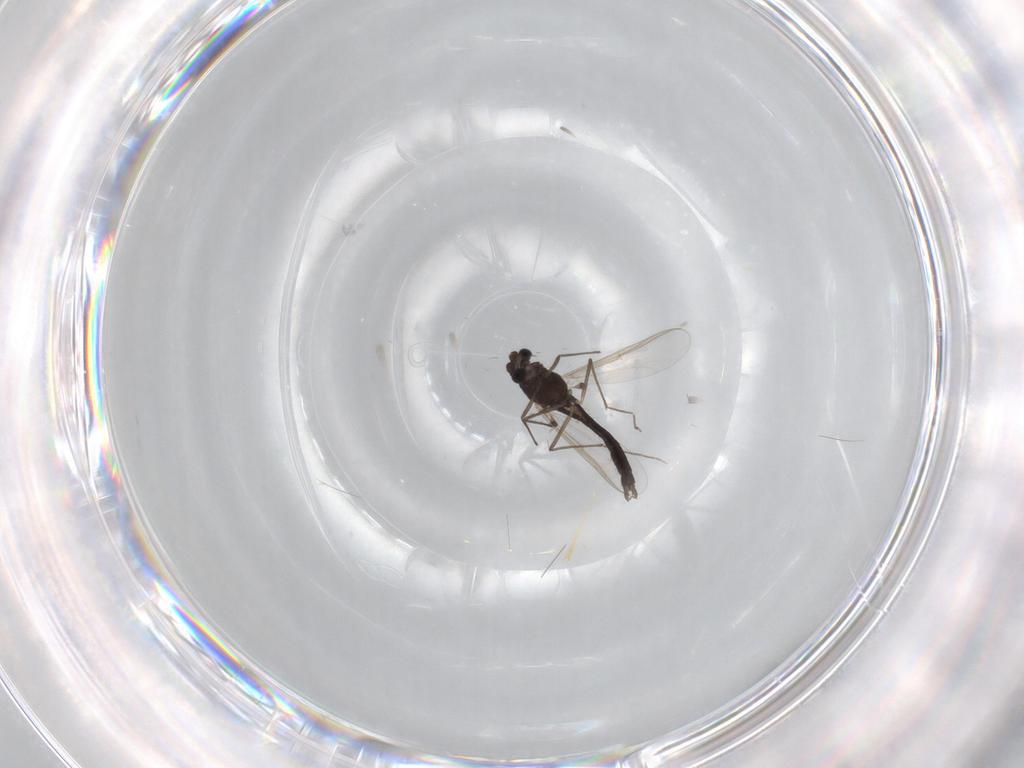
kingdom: Animalia
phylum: Arthropoda
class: Insecta
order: Diptera
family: Chironomidae
